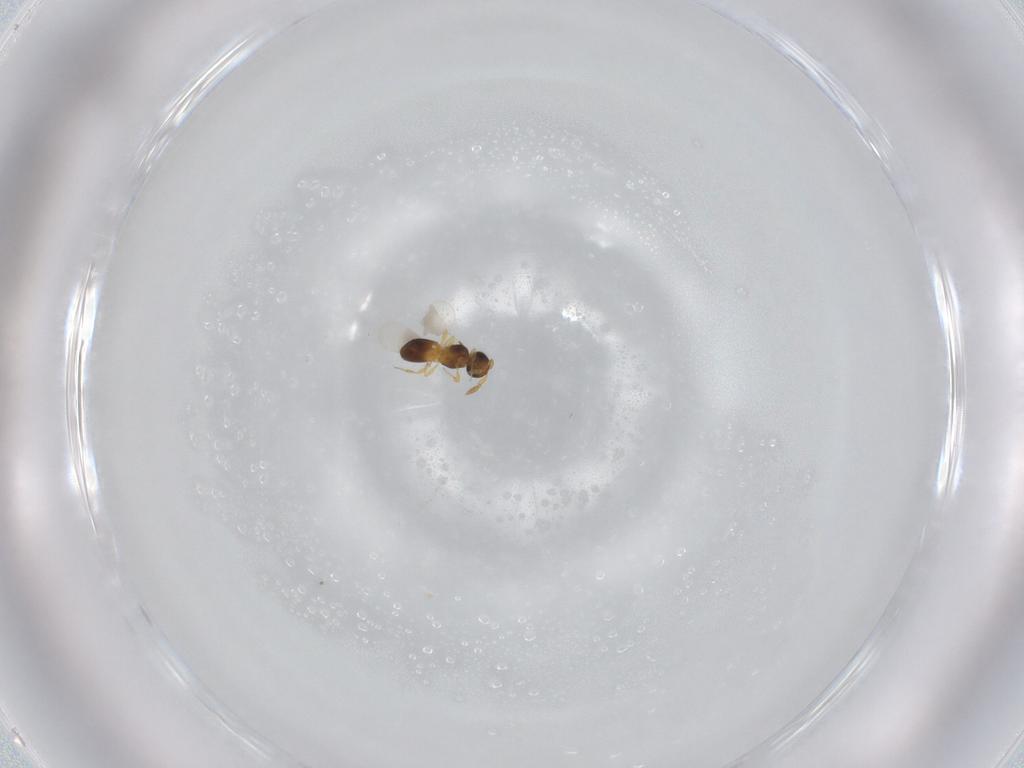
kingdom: Animalia
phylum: Arthropoda
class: Insecta
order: Hymenoptera
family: Platygastridae
